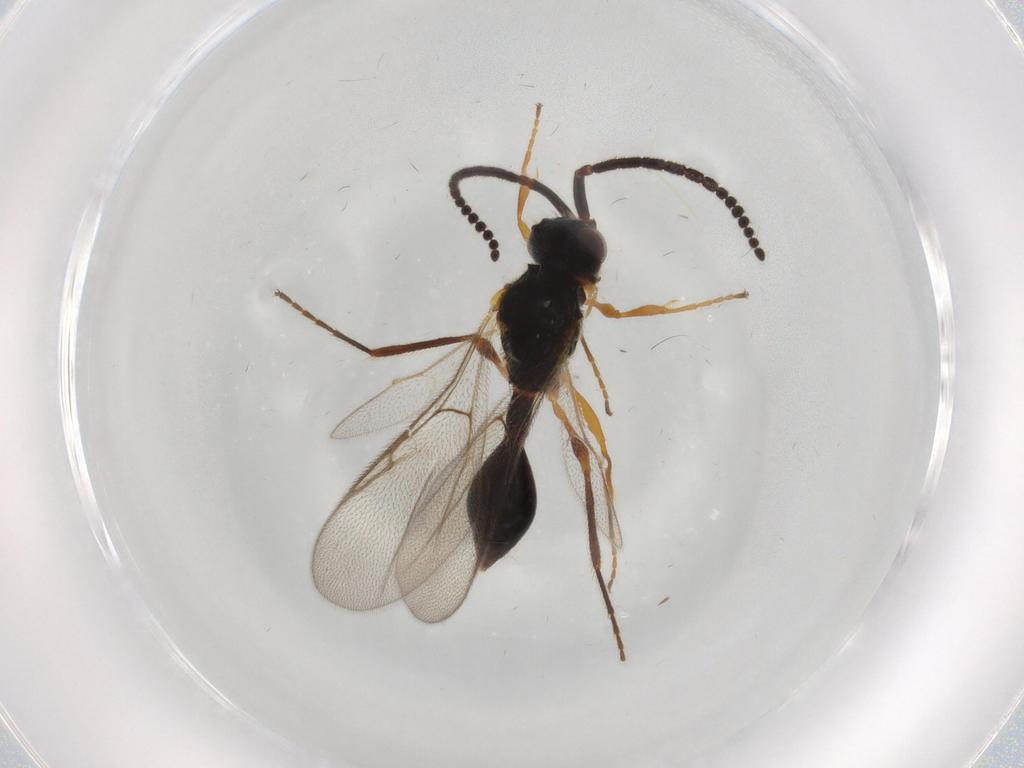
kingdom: Animalia
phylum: Arthropoda
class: Insecta
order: Hymenoptera
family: Diapriidae
